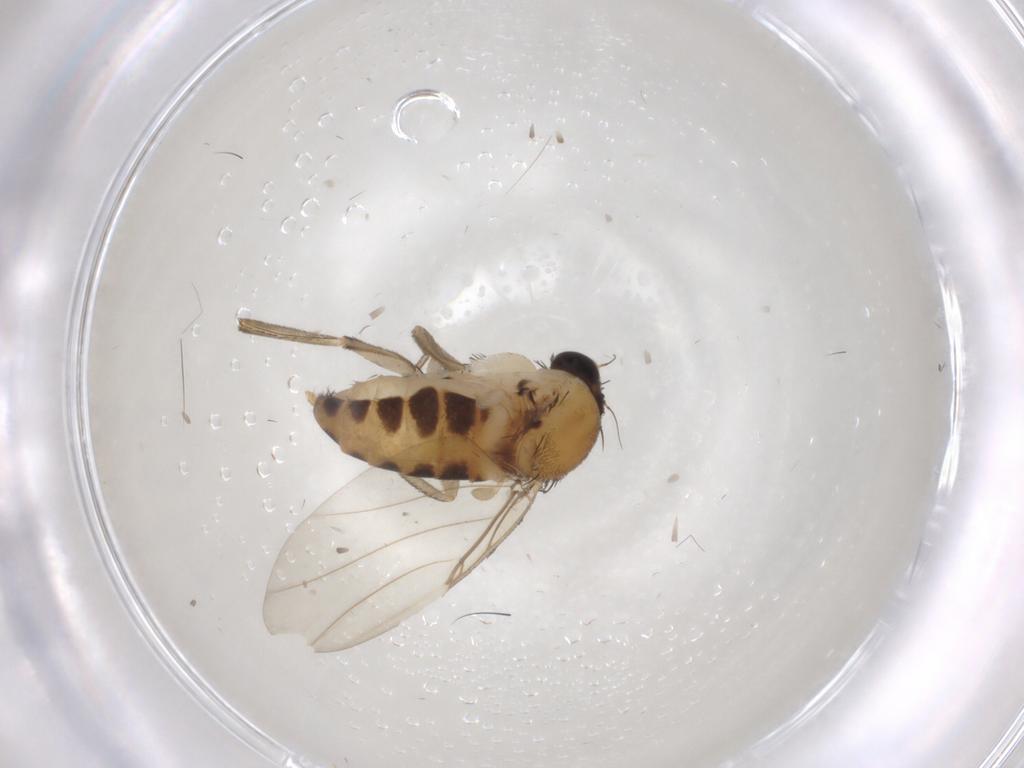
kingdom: Animalia
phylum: Arthropoda
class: Insecta
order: Diptera
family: Phoridae
